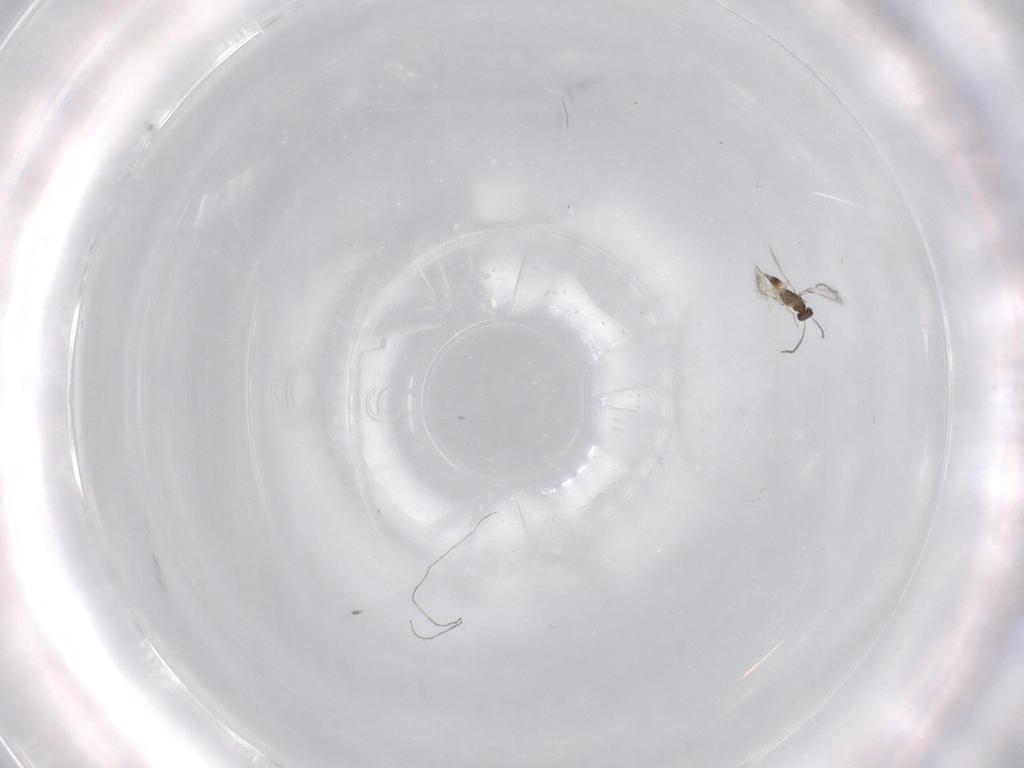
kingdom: Animalia
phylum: Arthropoda
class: Insecta
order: Hymenoptera
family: Mymaridae
